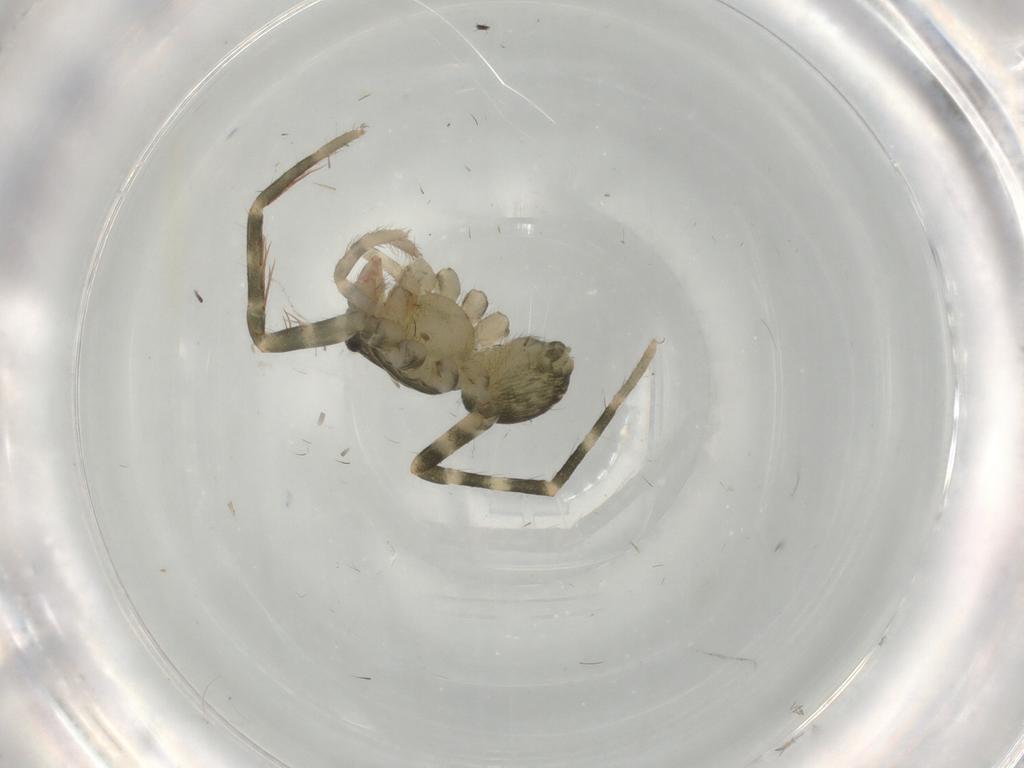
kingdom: Animalia
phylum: Arthropoda
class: Arachnida
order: Araneae
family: Ctenidae
